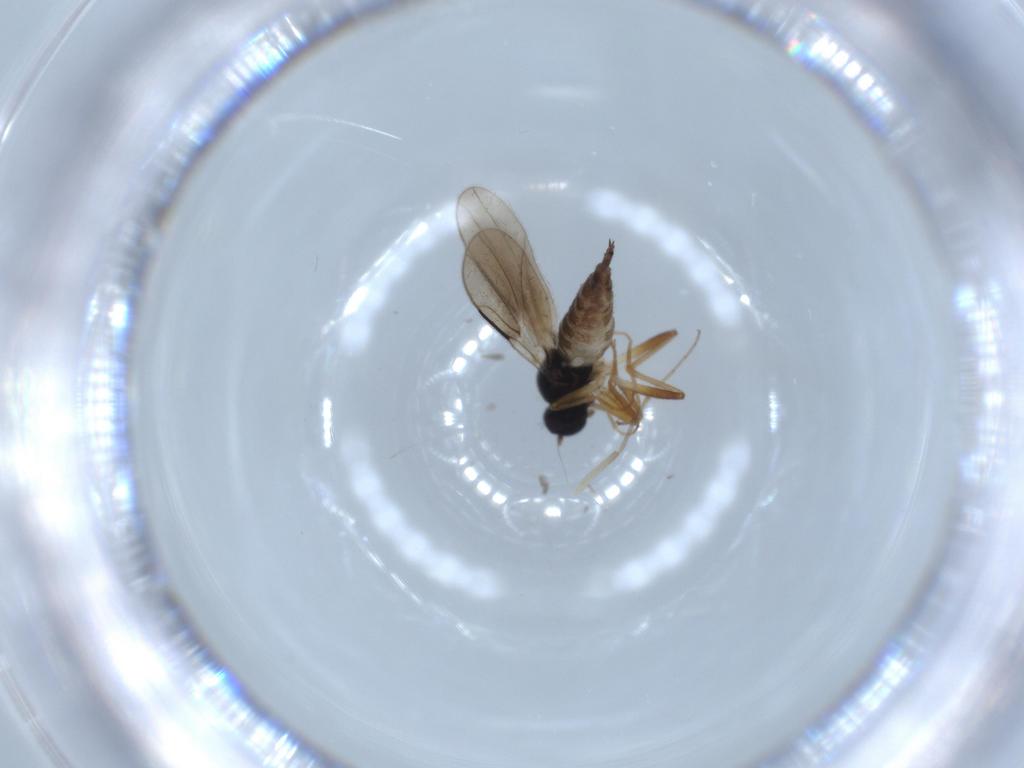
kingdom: Animalia
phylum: Arthropoda
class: Insecta
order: Diptera
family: Hybotidae
